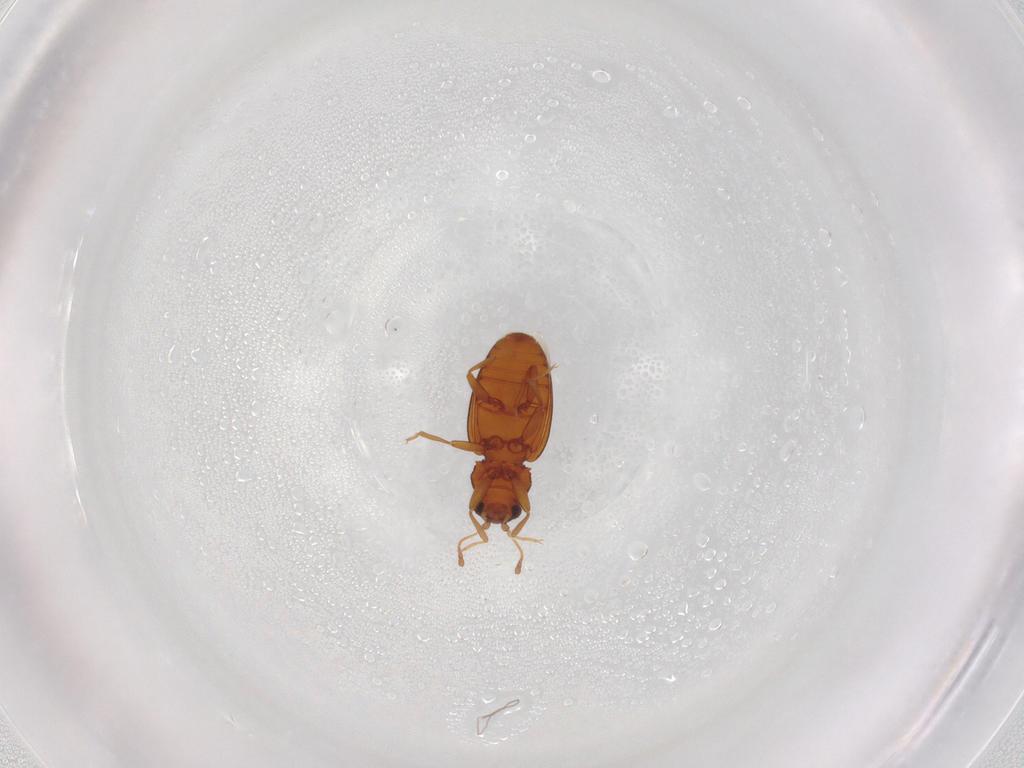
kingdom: Animalia
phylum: Arthropoda
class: Insecta
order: Coleoptera
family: Latridiidae
